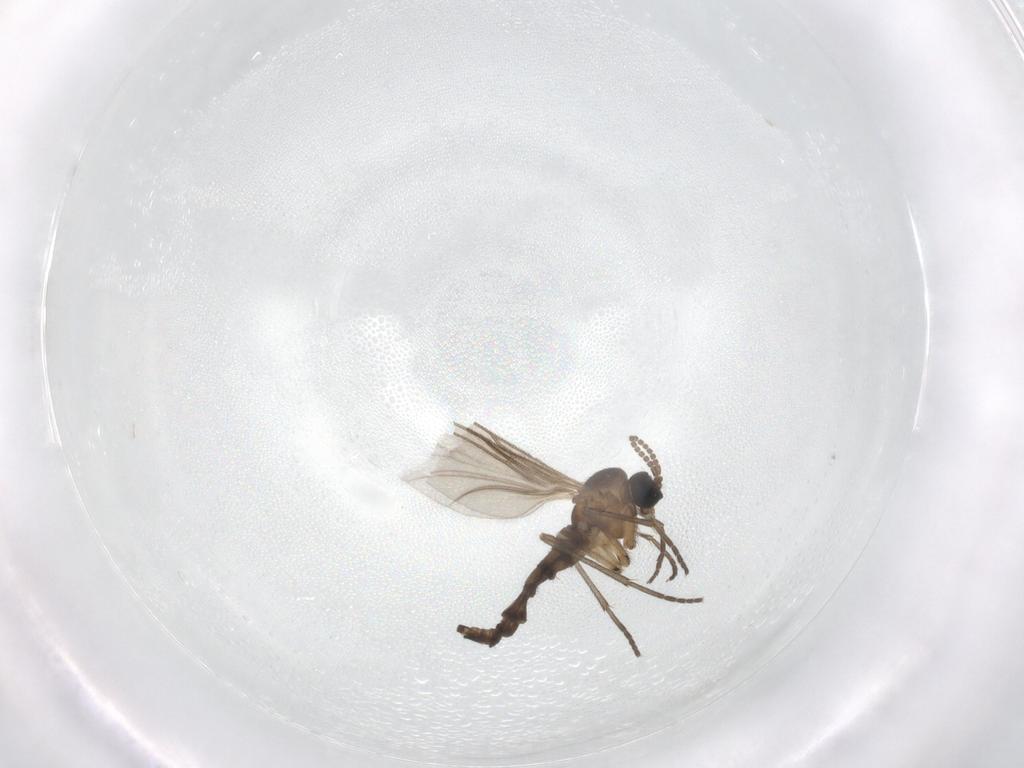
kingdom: Animalia
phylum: Arthropoda
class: Insecta
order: Diptera
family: Sciaridae
